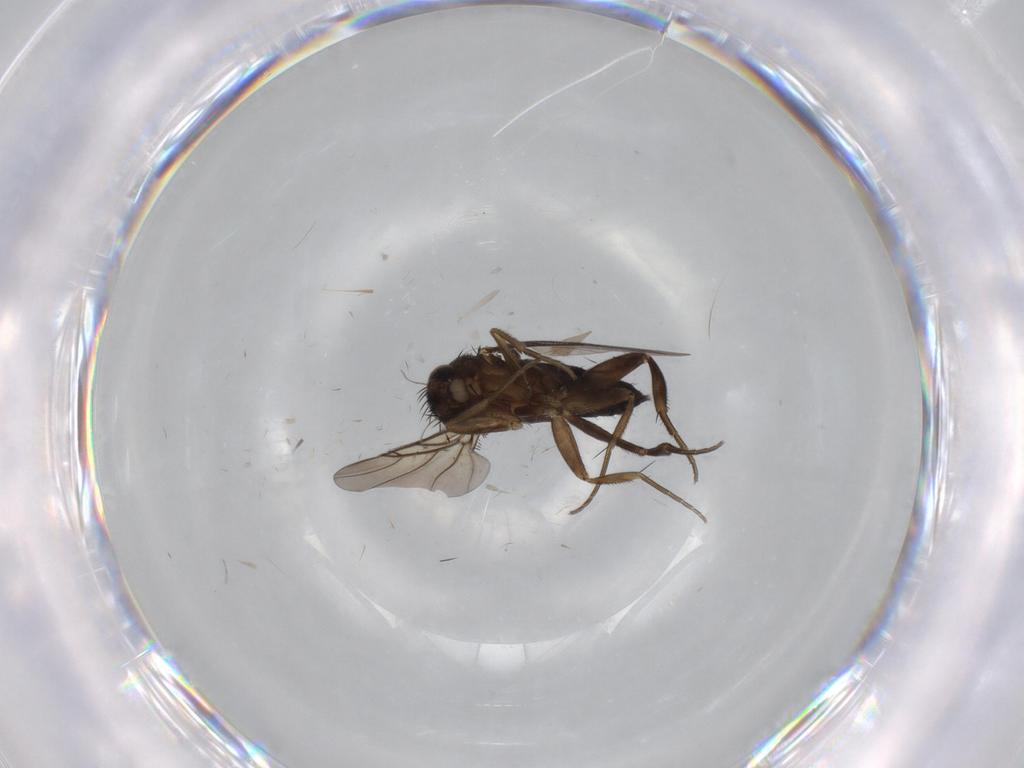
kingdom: Animalia
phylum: Arthropoda
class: Insecta
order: Diptera
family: Phoridae
